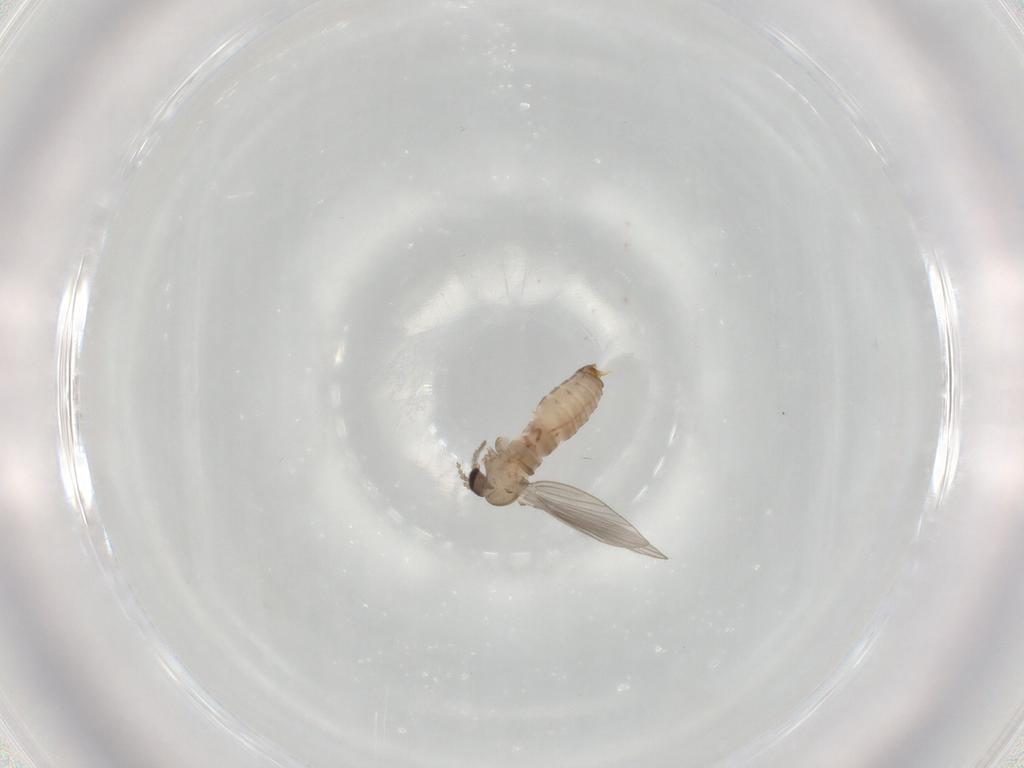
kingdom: Animalia
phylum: Arthropoda
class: Insecta
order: Diptera
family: Psychodidae
